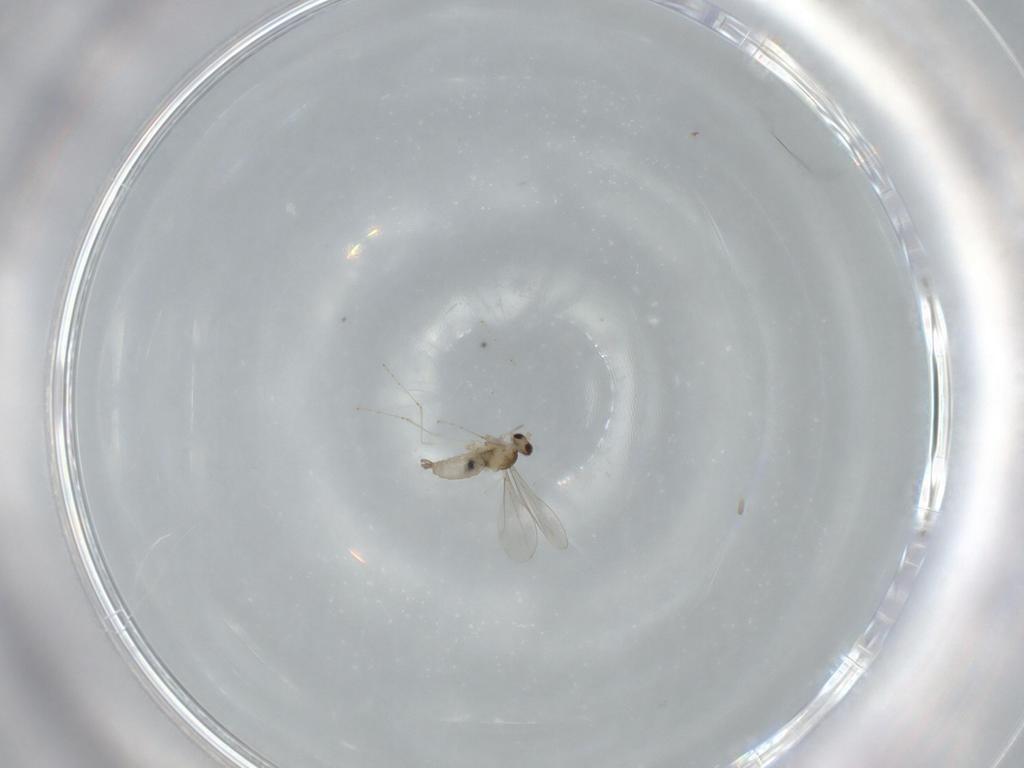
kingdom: Animalia
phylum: Arthropoda
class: Insecta
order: Diptera
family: Cecidomyiidae
